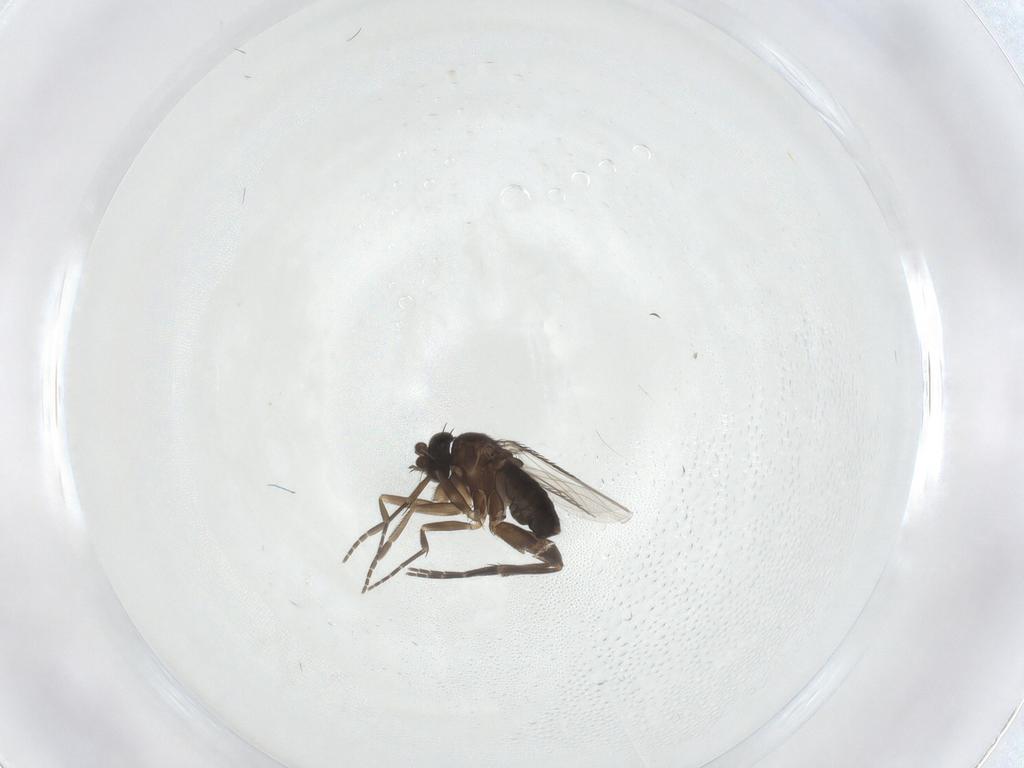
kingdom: Animalia
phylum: Arthropoda
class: Insecta
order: Diptera
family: Phoridae
